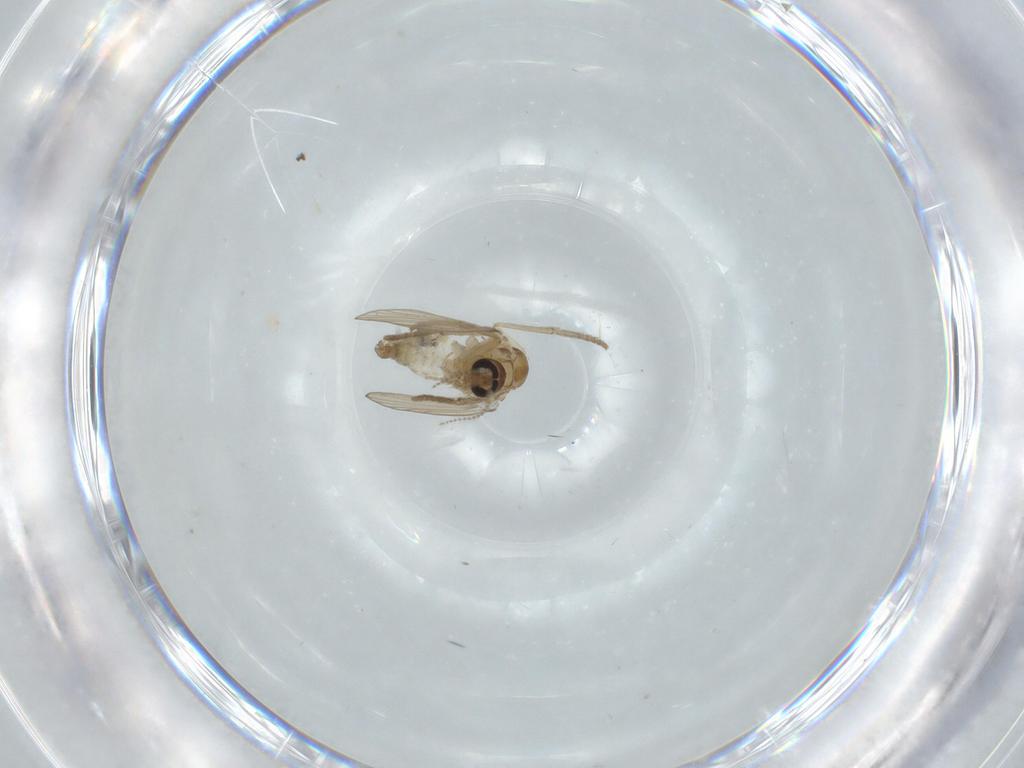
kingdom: Animalia
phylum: Arthropoda
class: Insecta
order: Diptera
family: Psychodidae
